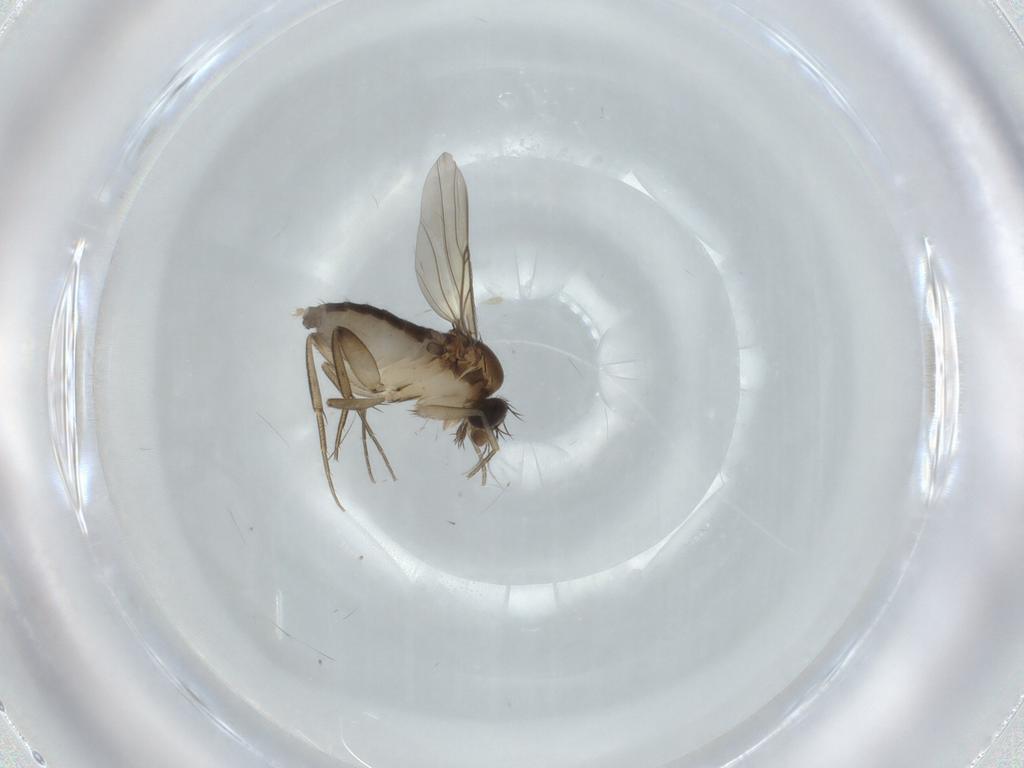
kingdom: Animalia
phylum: Arthropoda
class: Insecta
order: Diptera
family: Phoridae
